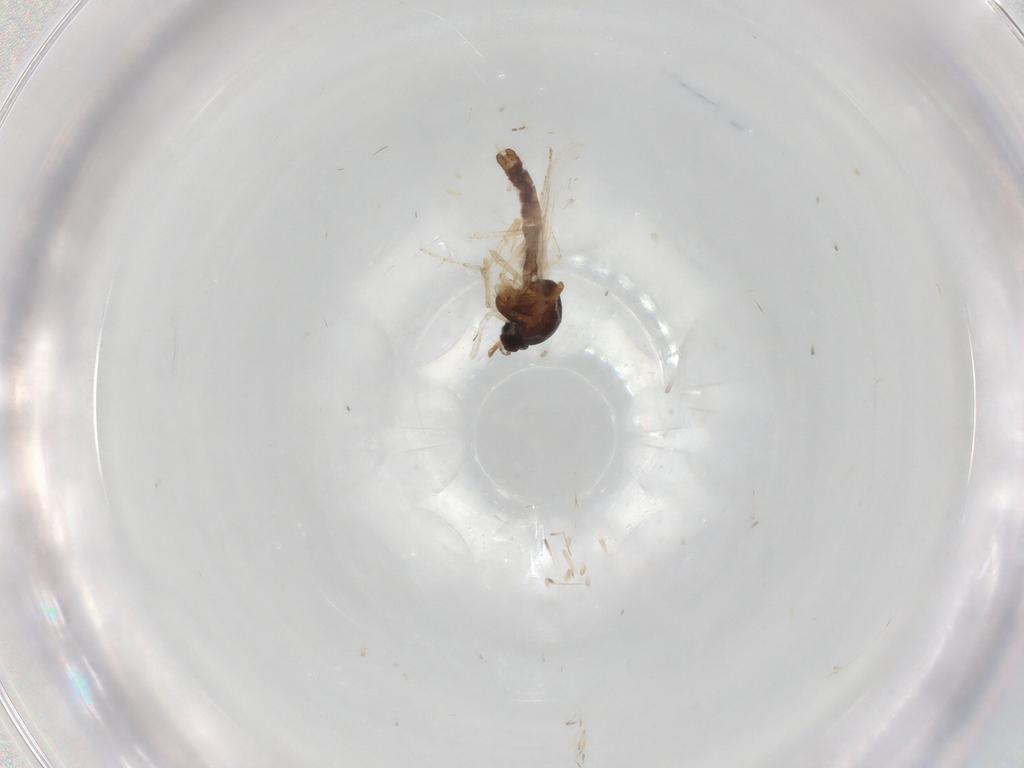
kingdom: Animalia
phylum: Arthropoda
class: Insecta
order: Diptera
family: Ceratopogonidae
